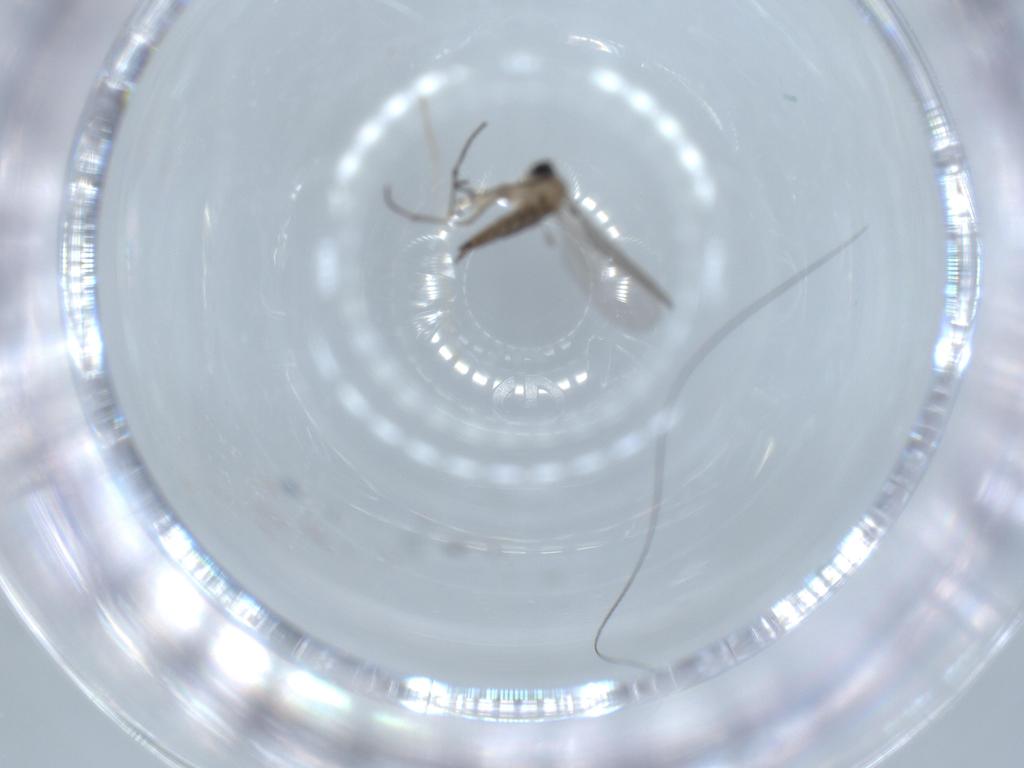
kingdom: Animalia
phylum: Arthropoda
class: Insecta
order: Diptera
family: Sciaridae
